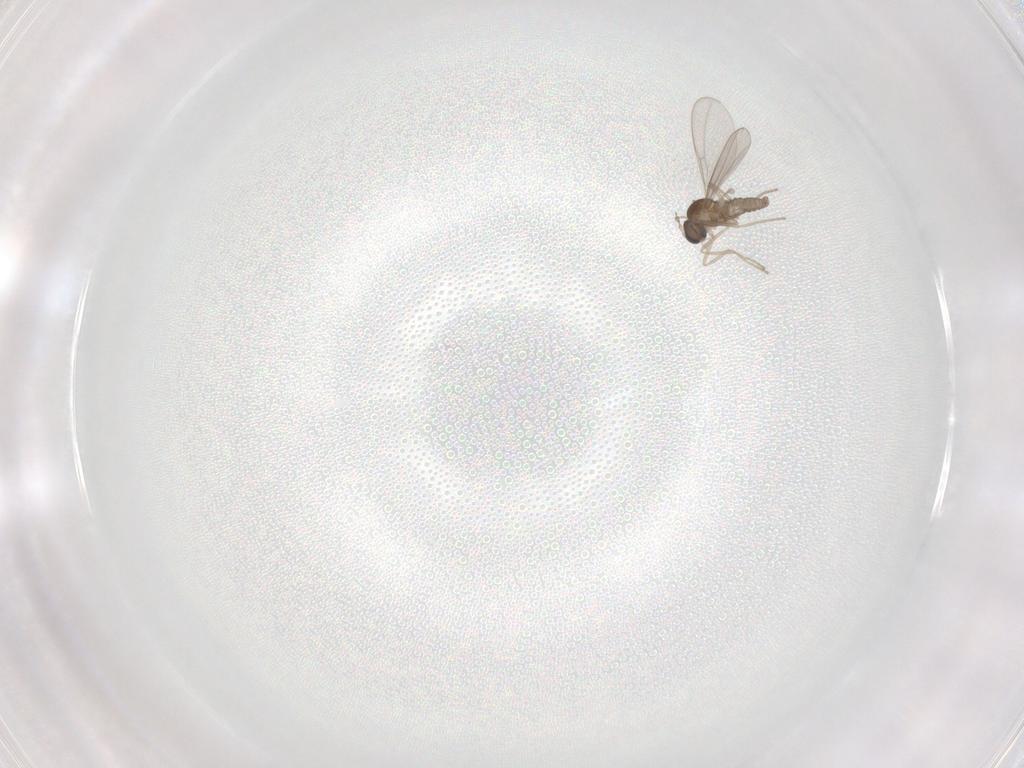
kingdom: Animalia
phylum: Arthropoda
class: Insecta
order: Diptera
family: Cecidomyiidae
